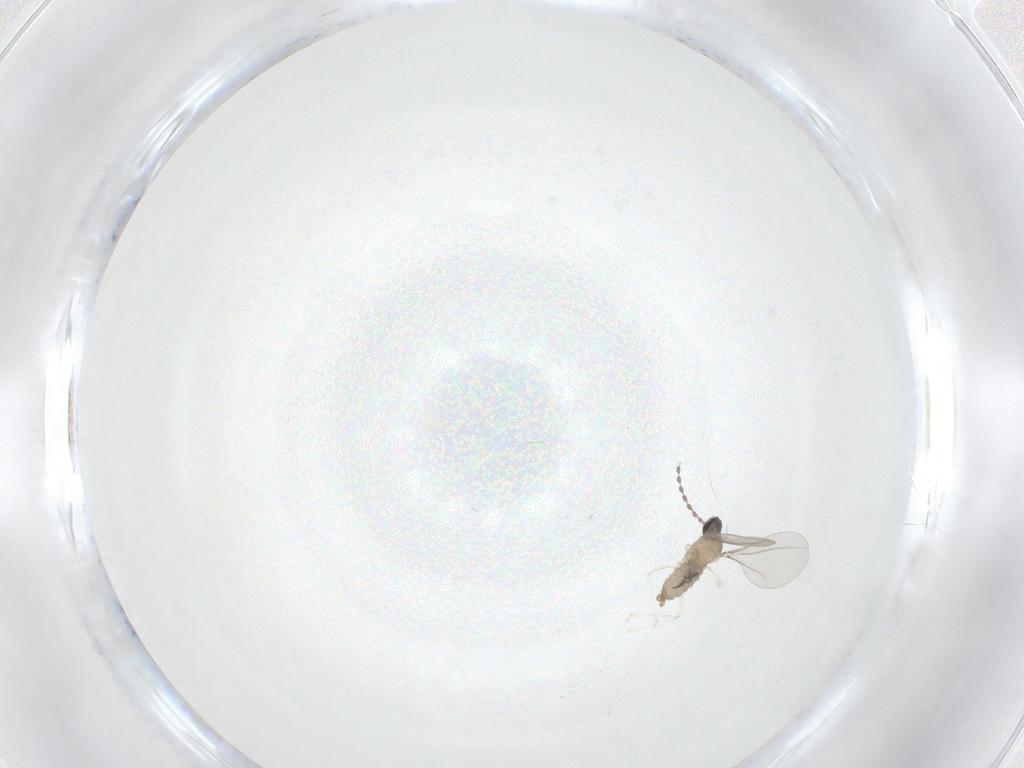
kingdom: Animalia
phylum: Arthropoda
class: Insecta
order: Diptera
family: Cecidomyiidae
